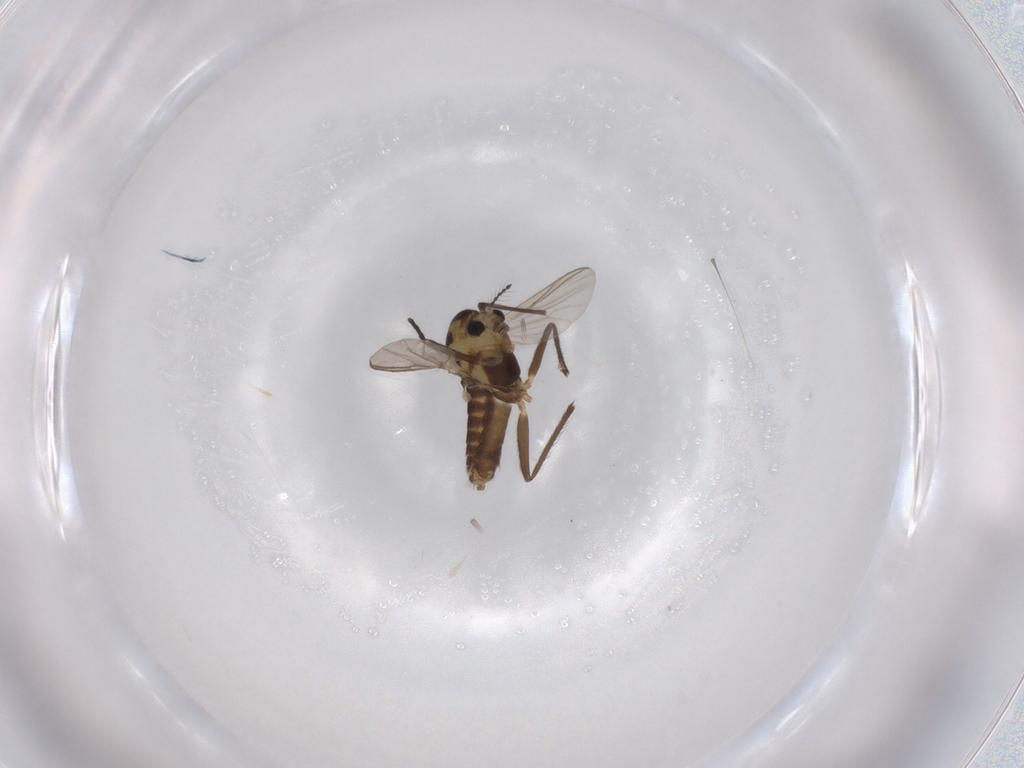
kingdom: Animalia
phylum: Arthropoda
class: Insecta
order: Diptera
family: Chironomidae
